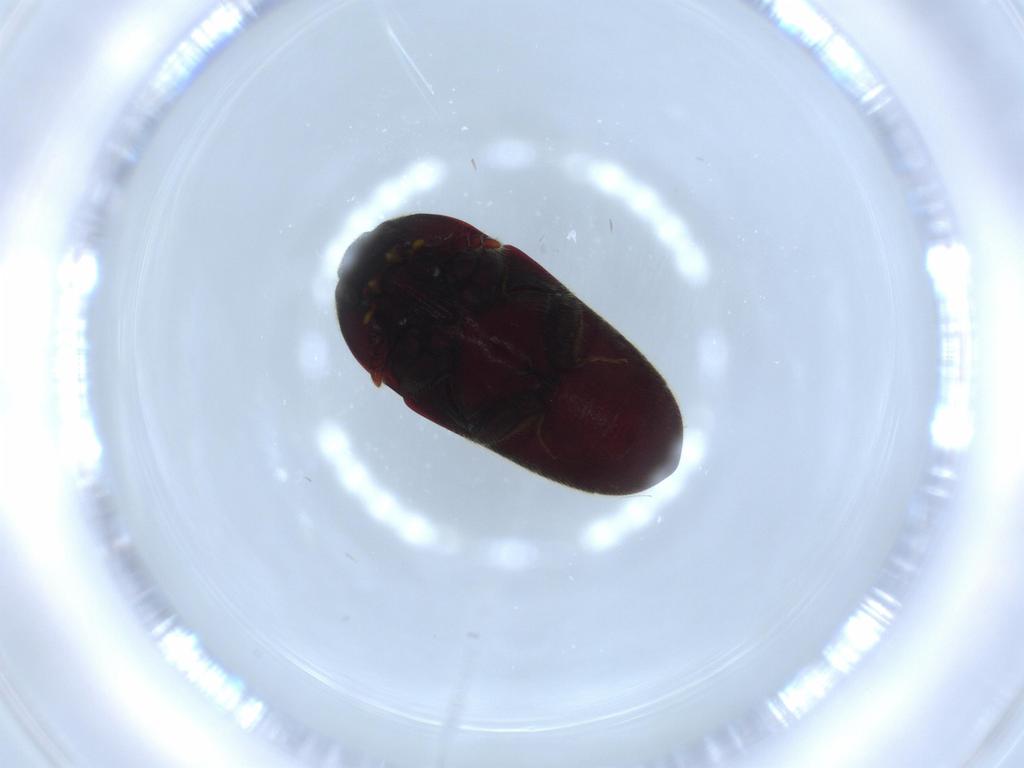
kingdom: Animalia
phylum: Arthropoda
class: Insecta
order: Coleoptera
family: Throscidae
